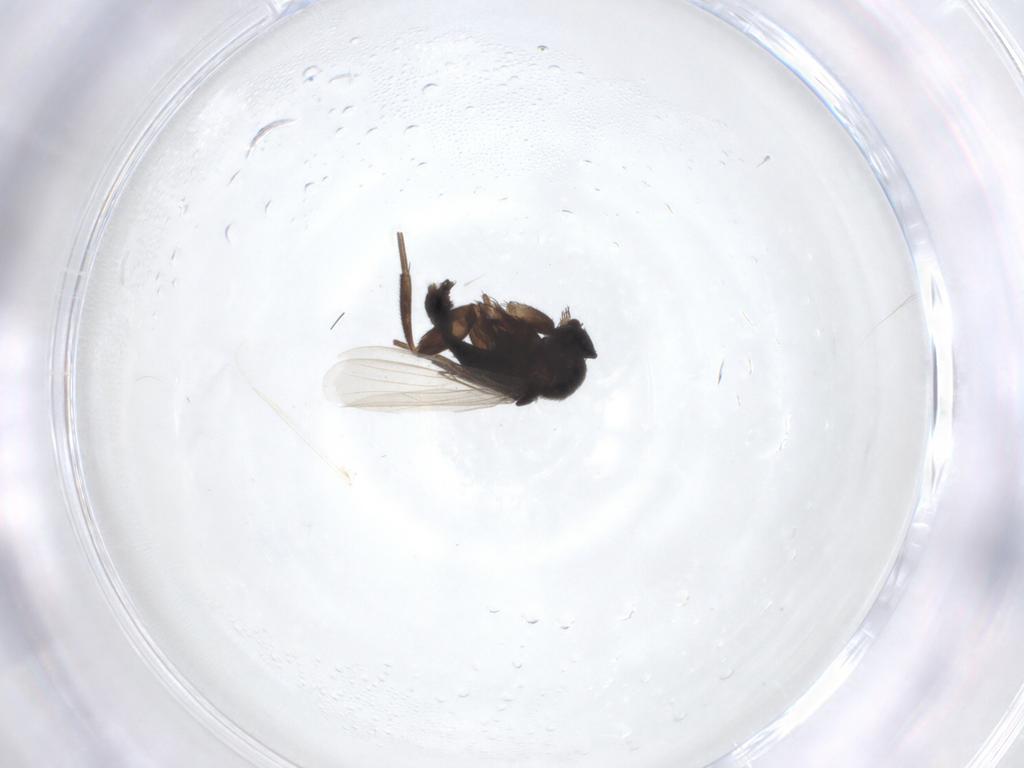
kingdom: Animalia
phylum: Arthropoda
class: Insecta
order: Diptera
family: Phoridae
